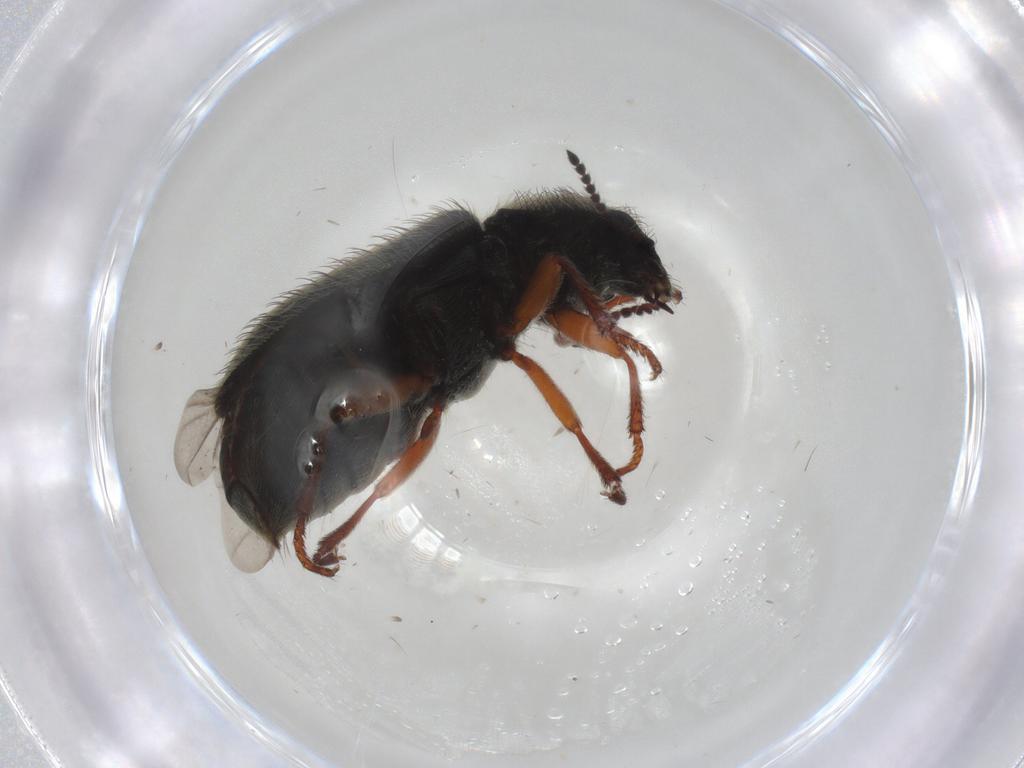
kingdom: Animalia
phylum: Arthropoda
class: Insecta
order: Coleoptera
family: Melyridae
